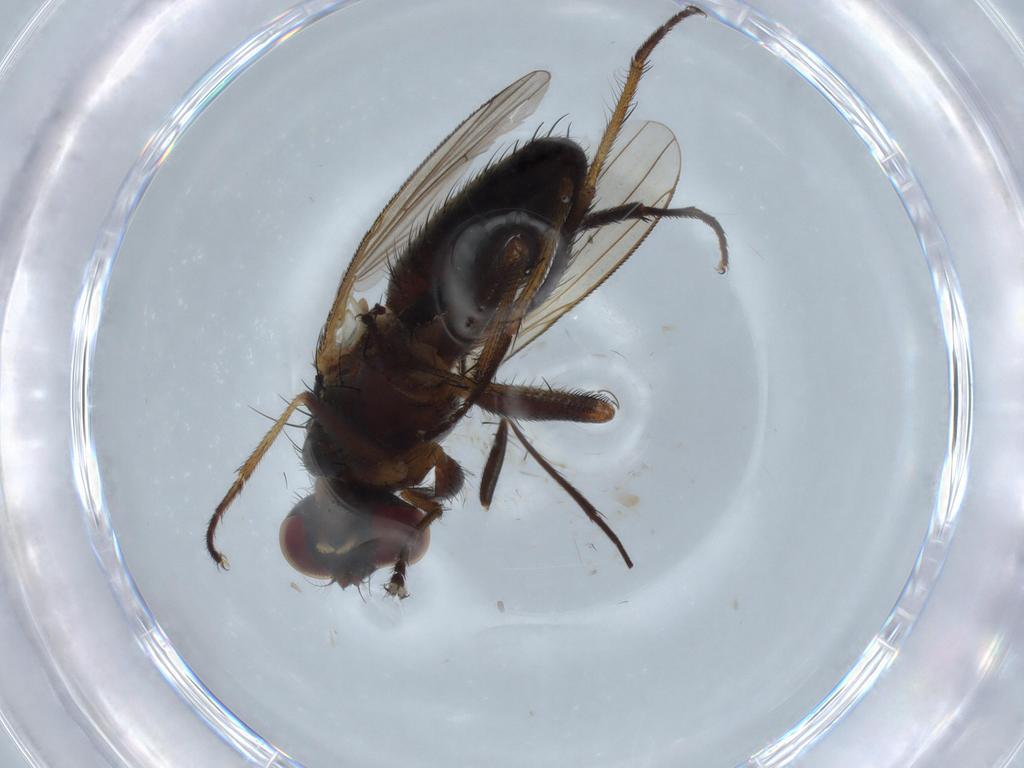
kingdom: Animalia
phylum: Arthropoda
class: Insecta
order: Diptera
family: Dolichopodidae
